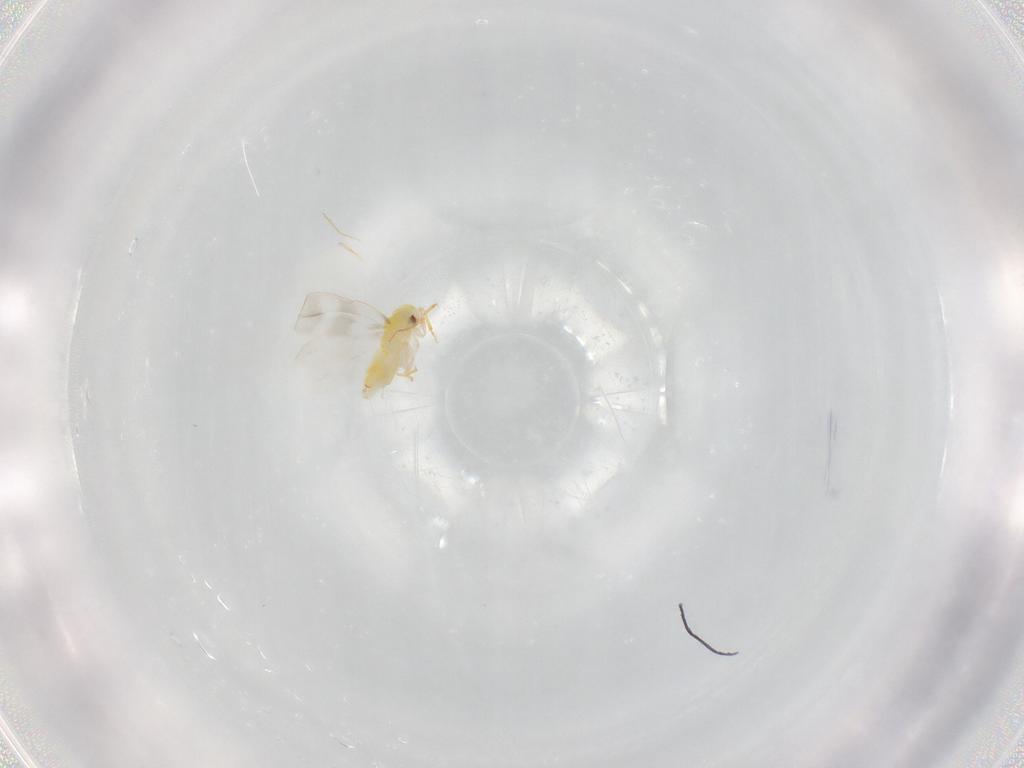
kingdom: Animalia
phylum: Arthropoda
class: Insecta
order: Hemiptera
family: Aleyrodidae
